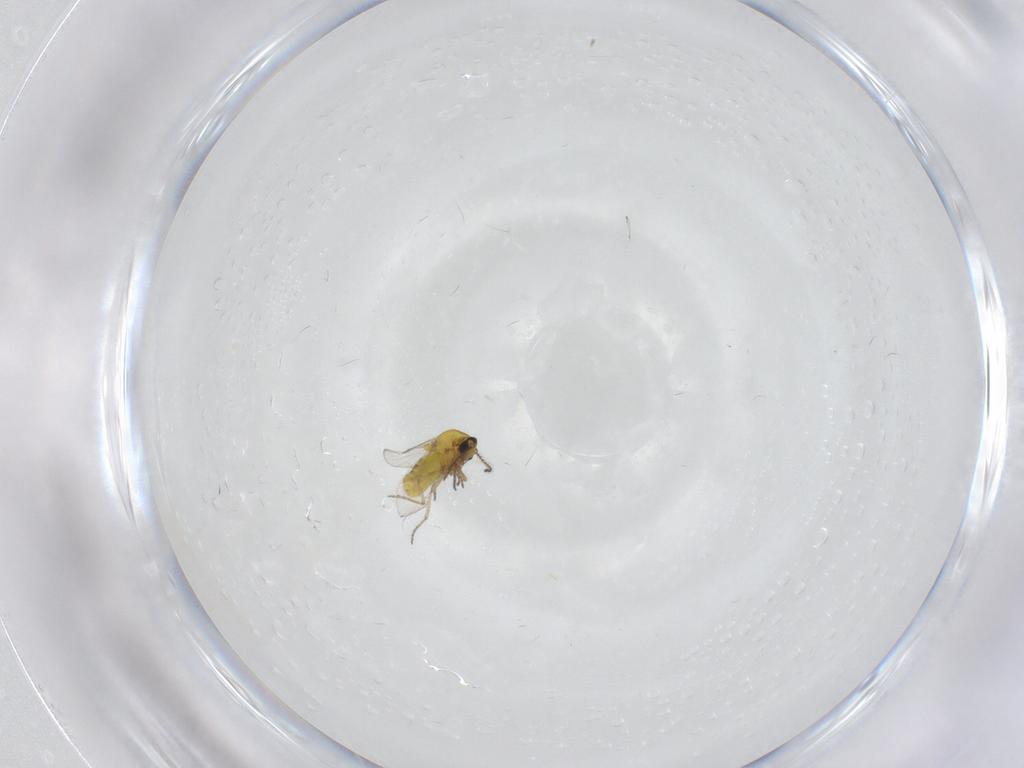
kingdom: Animalia
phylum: Arthropoda
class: Insecta
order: Diptera
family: Ceratopogonidae
